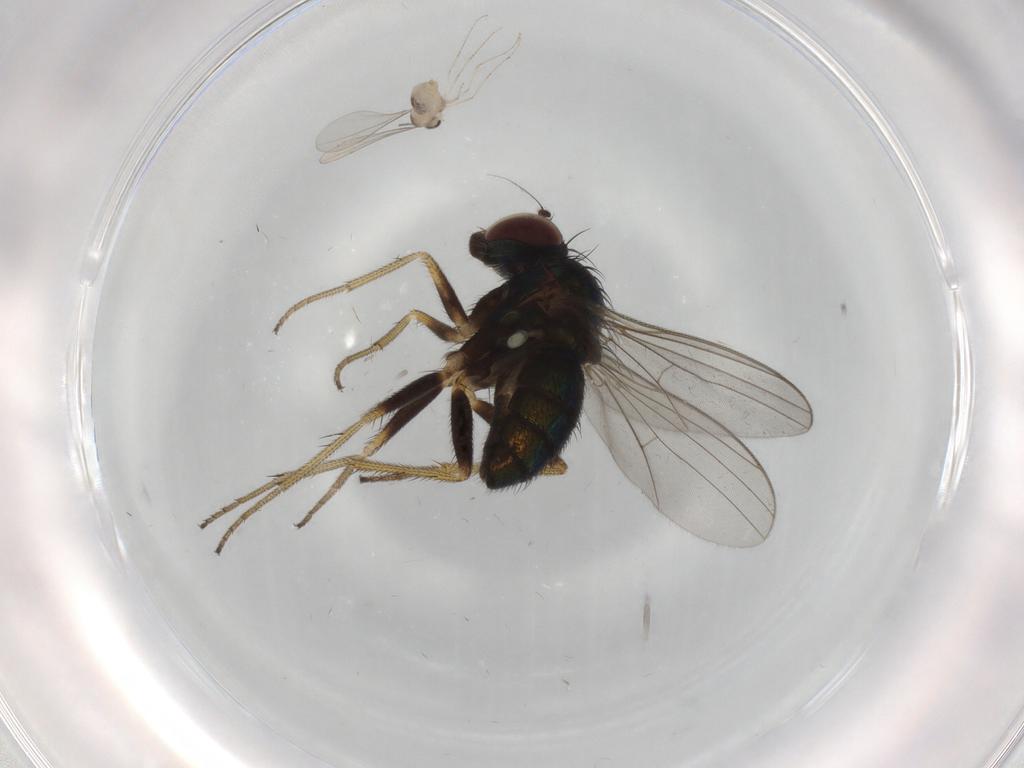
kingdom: Animalia
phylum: Arthropoda
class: Insecta
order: Diptera
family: Cecidomyiidae
